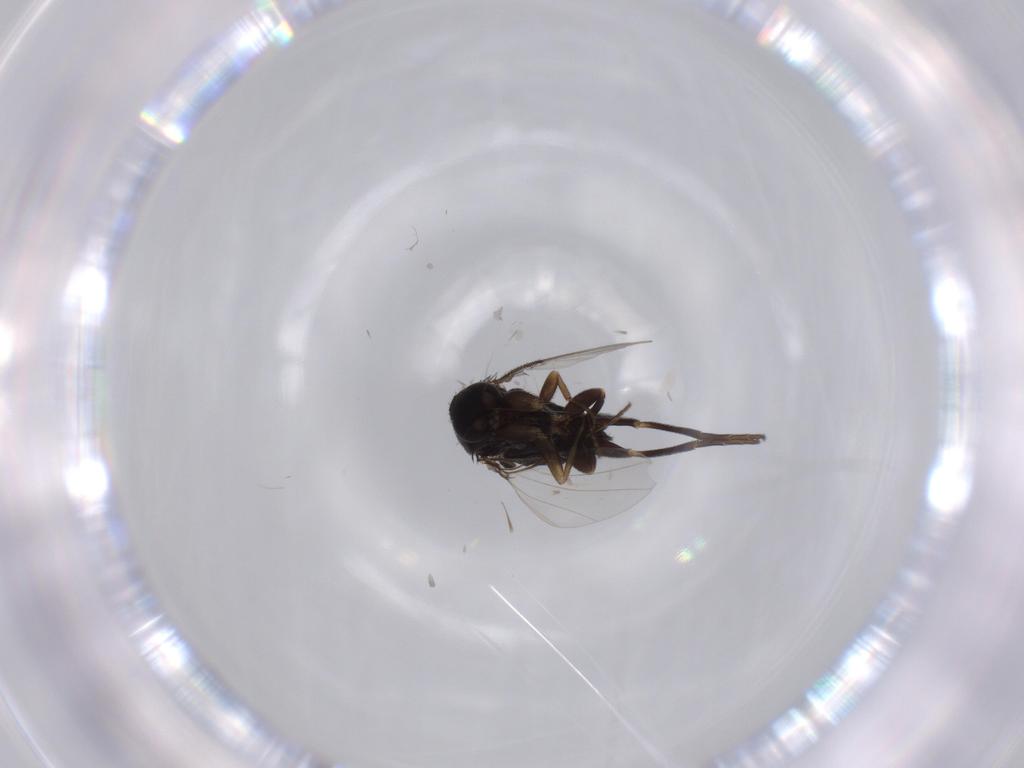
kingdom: Animalia
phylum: Arthropoda
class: Insecta
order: Diptera
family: Phoridae
